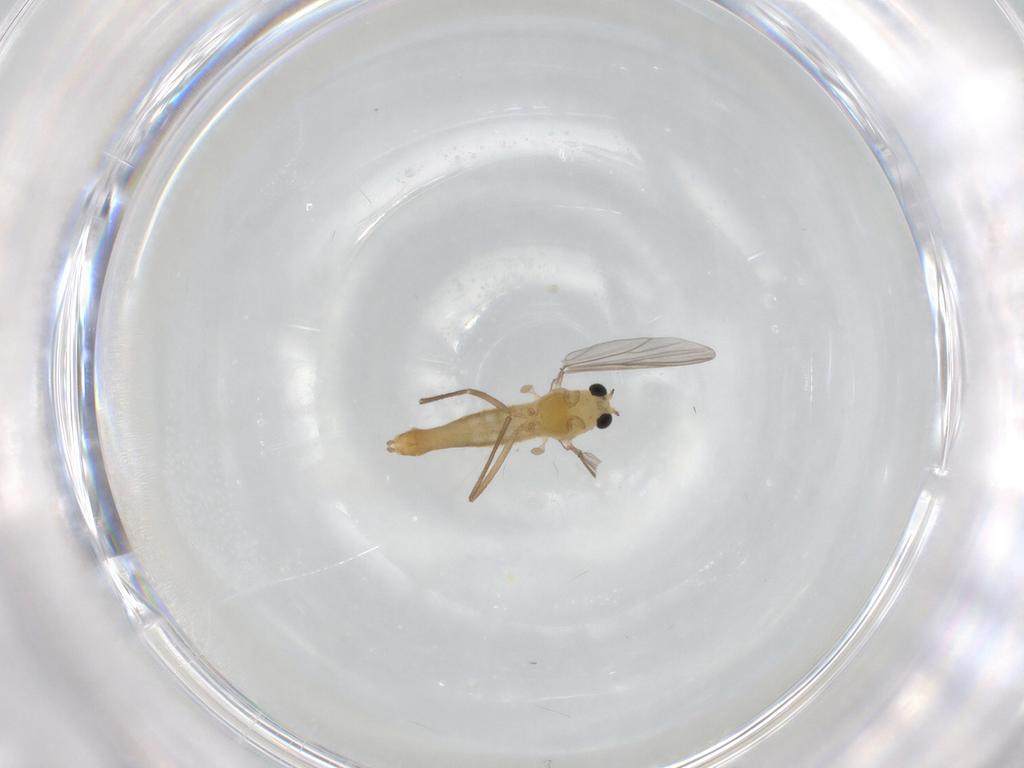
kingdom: Animalia
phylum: Arthropoda
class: Insecta
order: Diptera
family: Chironomidae
